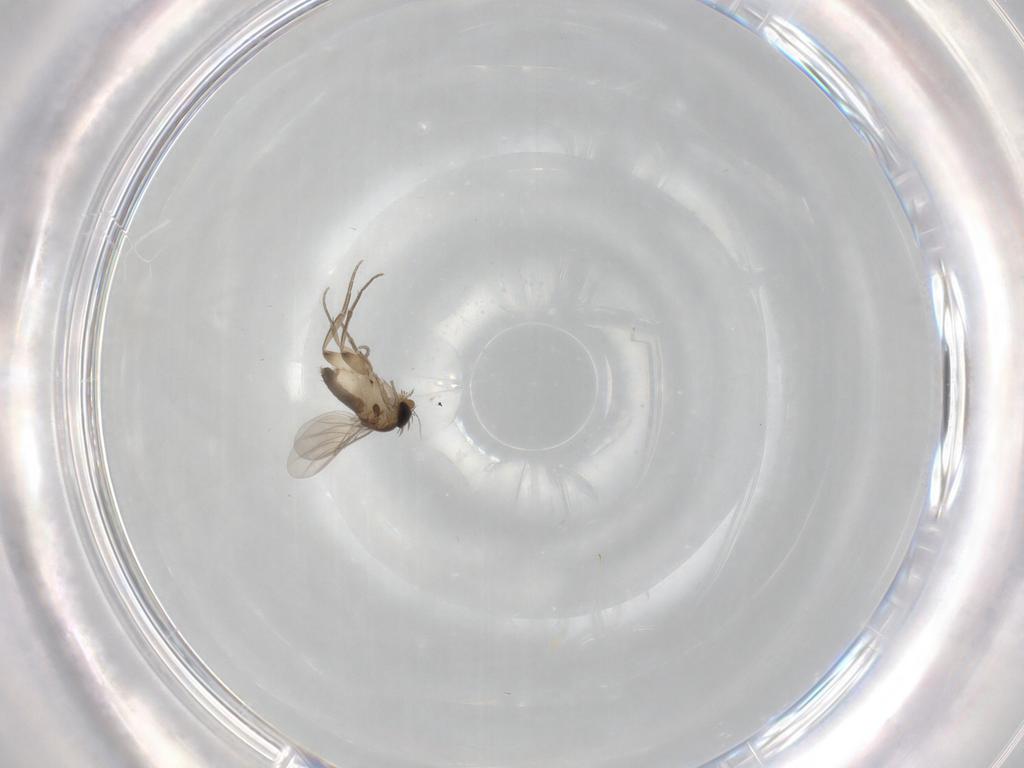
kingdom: Animalia
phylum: Arthropoda
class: Insecta
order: Diptera
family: Phoridae
